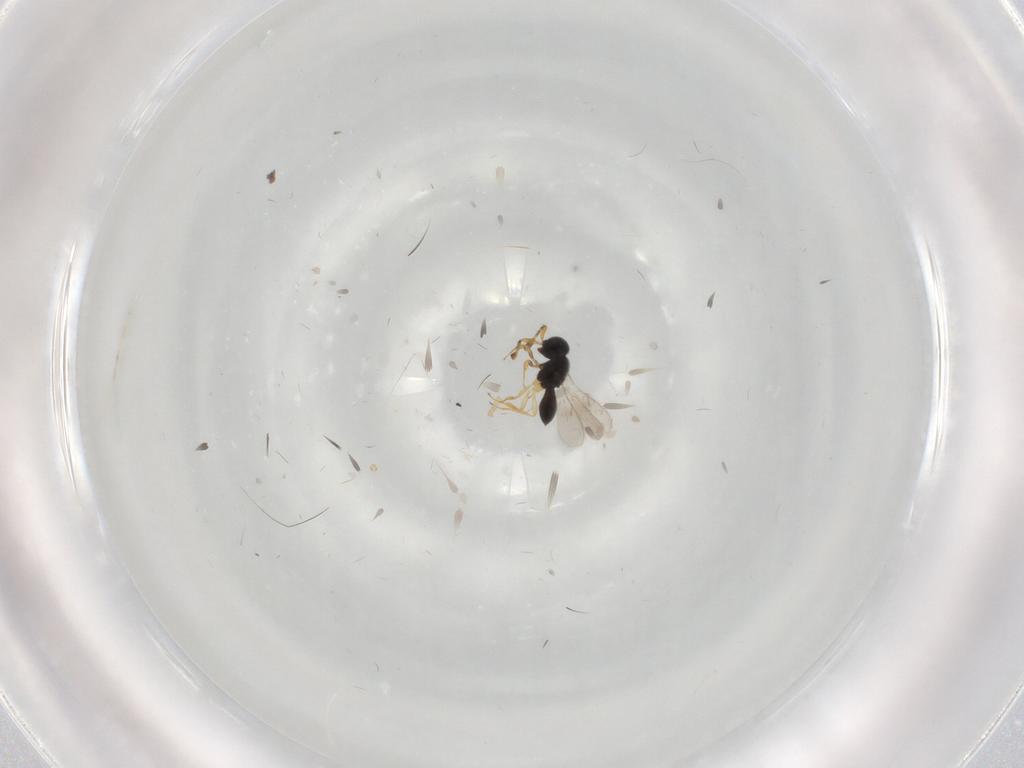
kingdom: Animalia
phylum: Arthropoda
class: Insecta
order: Hymenoptera
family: Scelionidae
